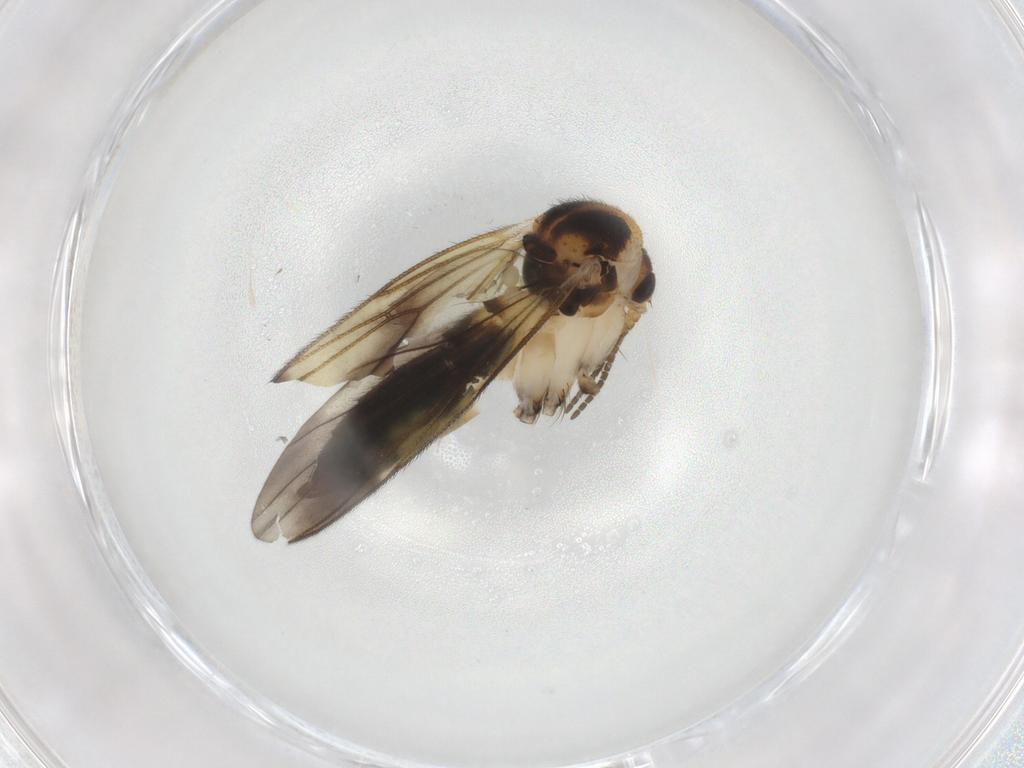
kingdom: Animalia
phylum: Arthropoda
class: Insecta
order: Diptera
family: Mycetophilidae
